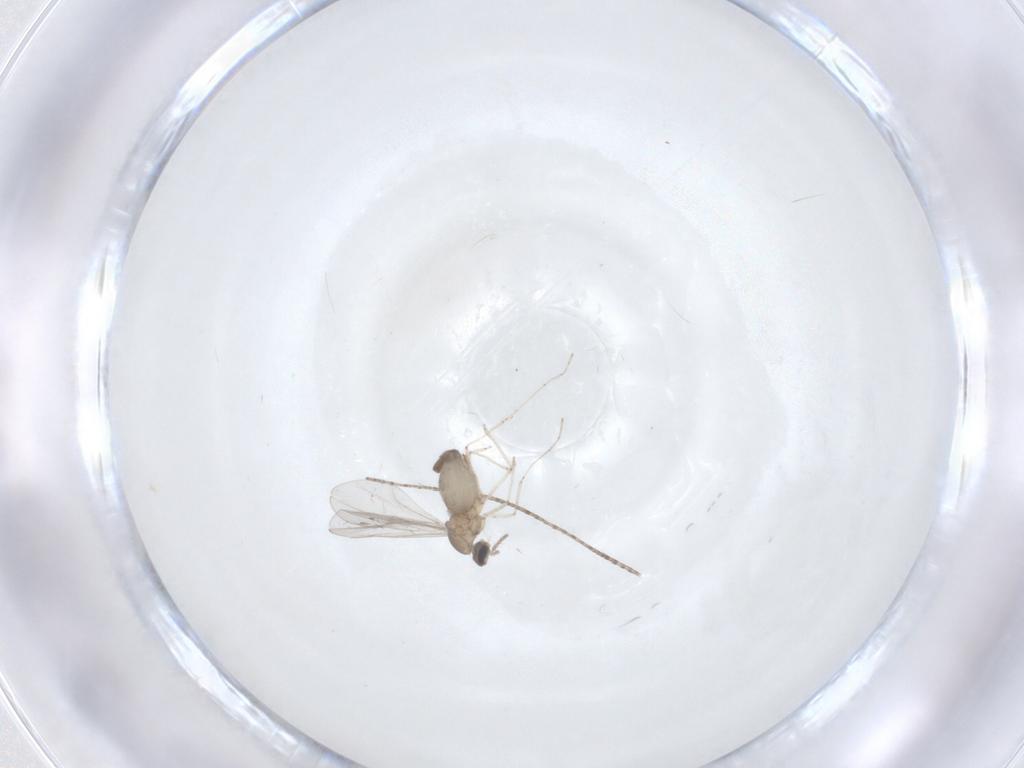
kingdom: Animalia
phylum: Arthropoda
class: Insecta
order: Diptera
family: Cecidomyiidae
